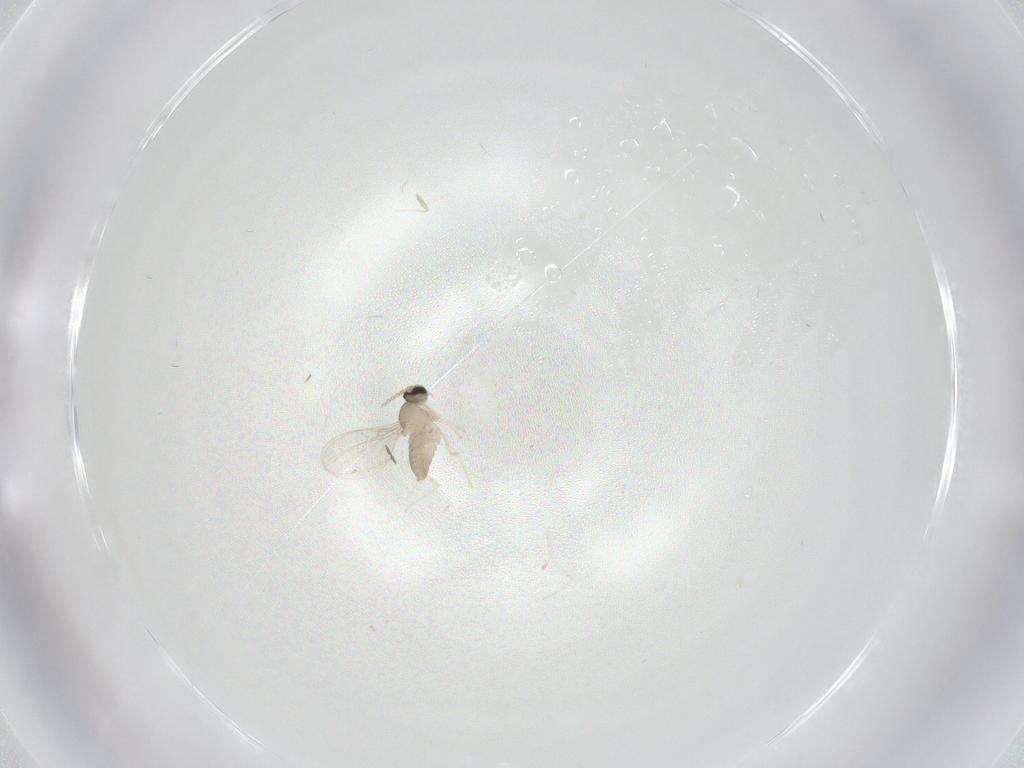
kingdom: Animalia
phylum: Arthropoda
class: Insecta
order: Diptera
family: Cecidomyiidae
